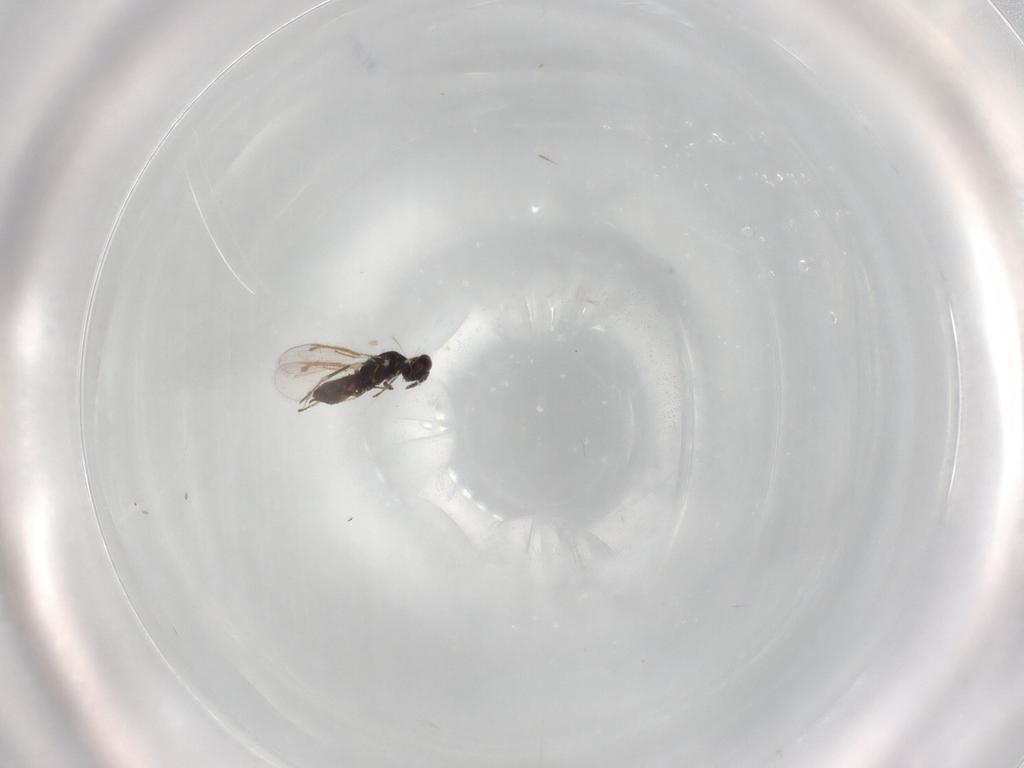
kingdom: Animalia
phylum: Arthropoda
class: Insecta
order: Hymenoptera
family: Eulophidae
